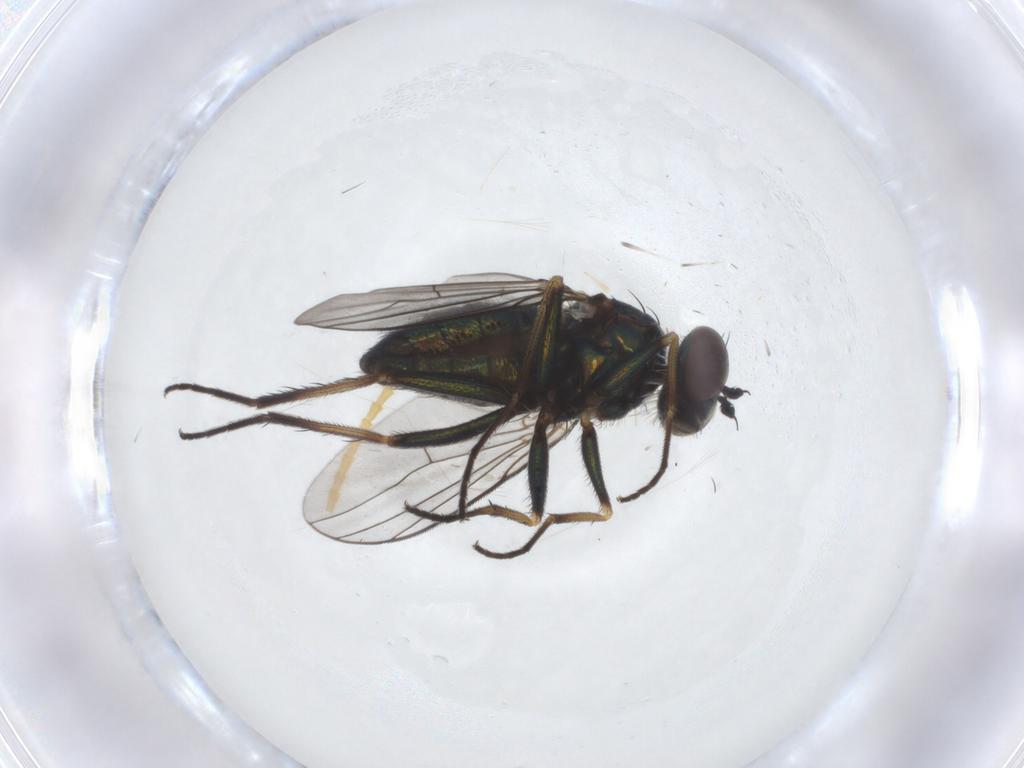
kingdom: Animalia
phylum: Arthropoda
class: Insecta
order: Diptera
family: Dolichopodidae
